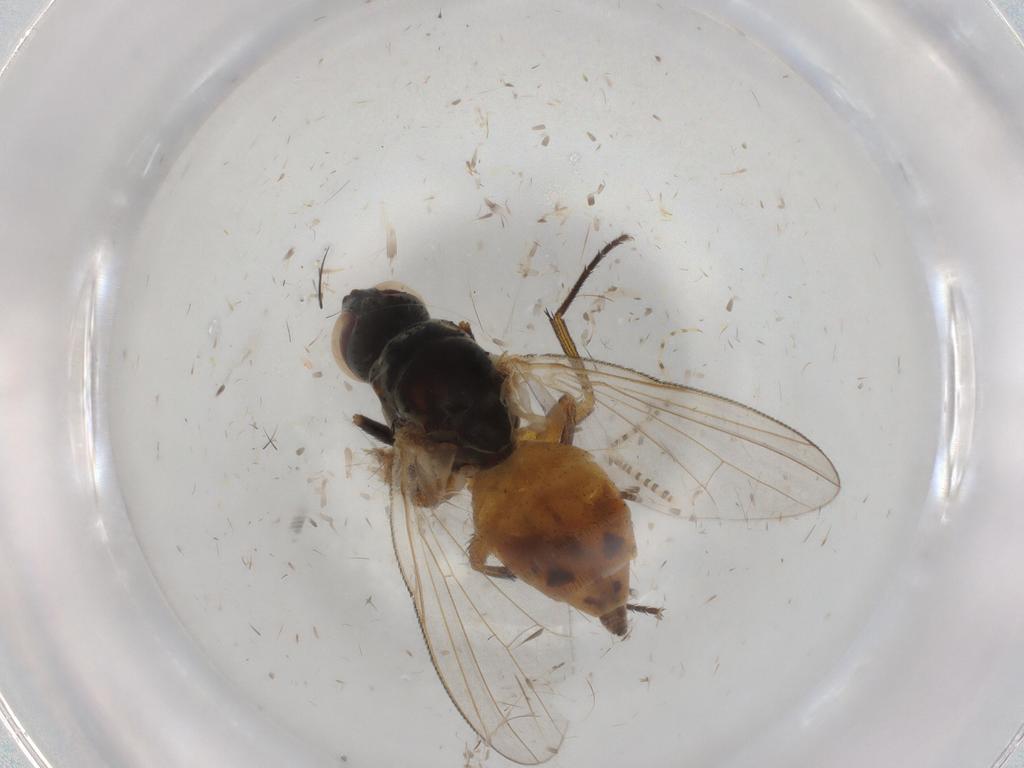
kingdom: Animalia
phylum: Arthropoda
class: Insecta
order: Diptera
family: Chaoboridae
